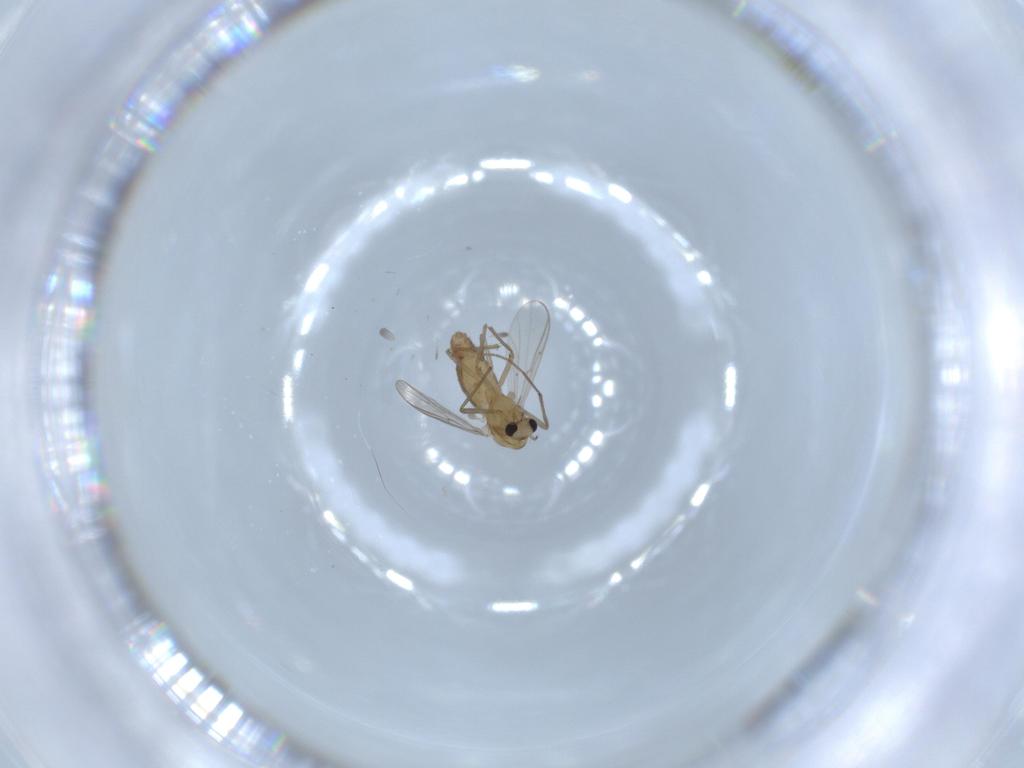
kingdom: Animalia
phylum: Arthropoda
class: Insecta
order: Diptera
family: Chironomidae
